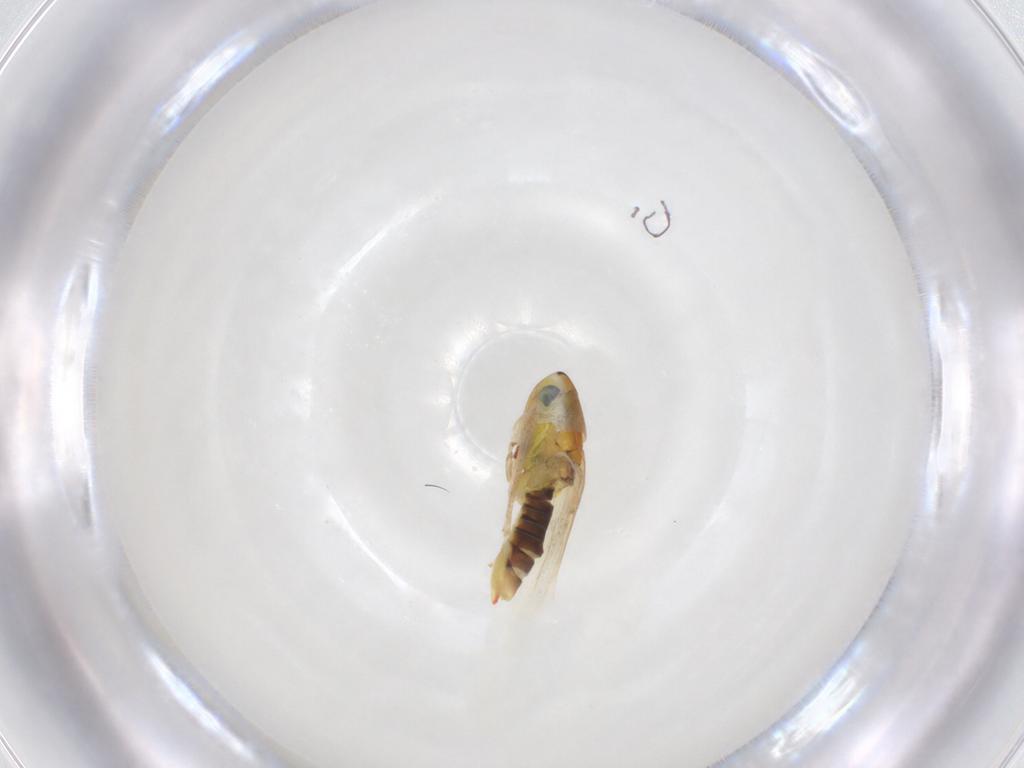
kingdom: Animalia
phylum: Arthropoda
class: Insecta
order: Hemiptera
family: Cicadellidae
